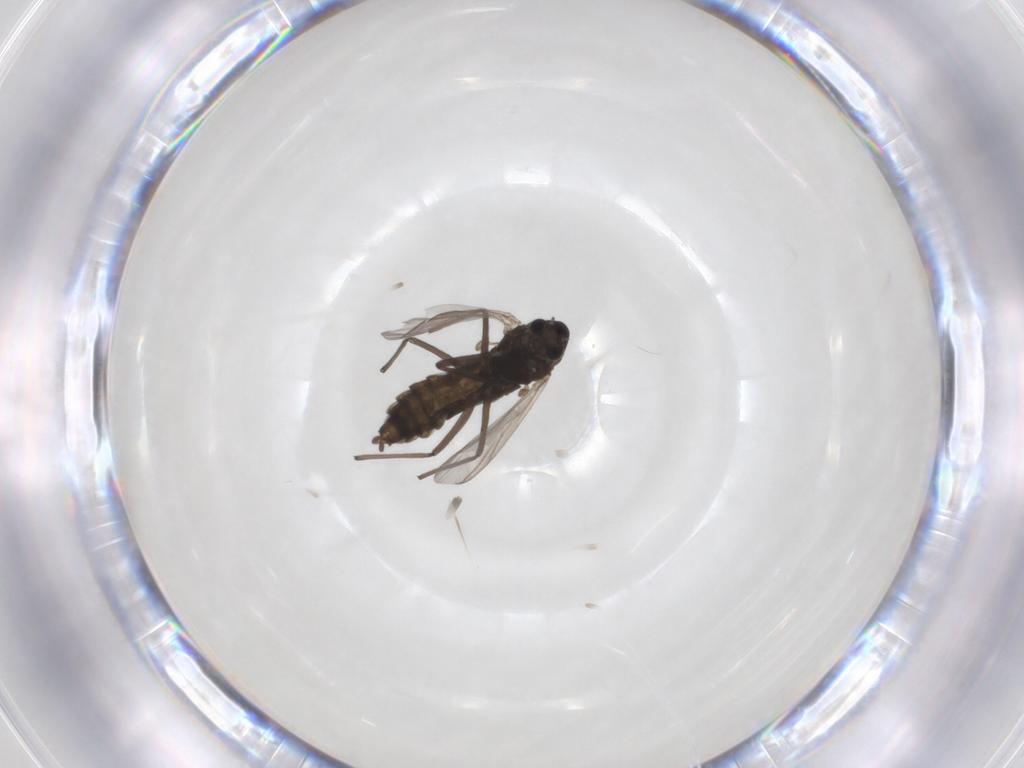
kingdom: Animalia
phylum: Arthropoda
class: Insecta
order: Diptera
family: Chironomidae
